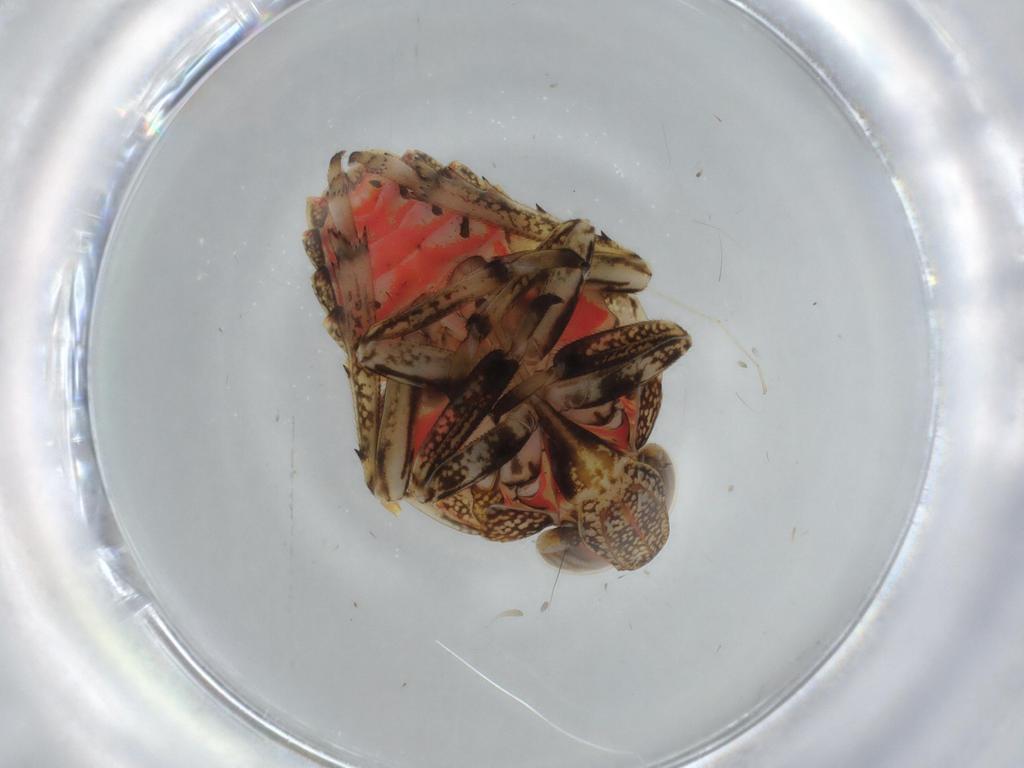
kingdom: Animalia
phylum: Arthropoda
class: Insecta
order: Hemiptera
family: Issidae
